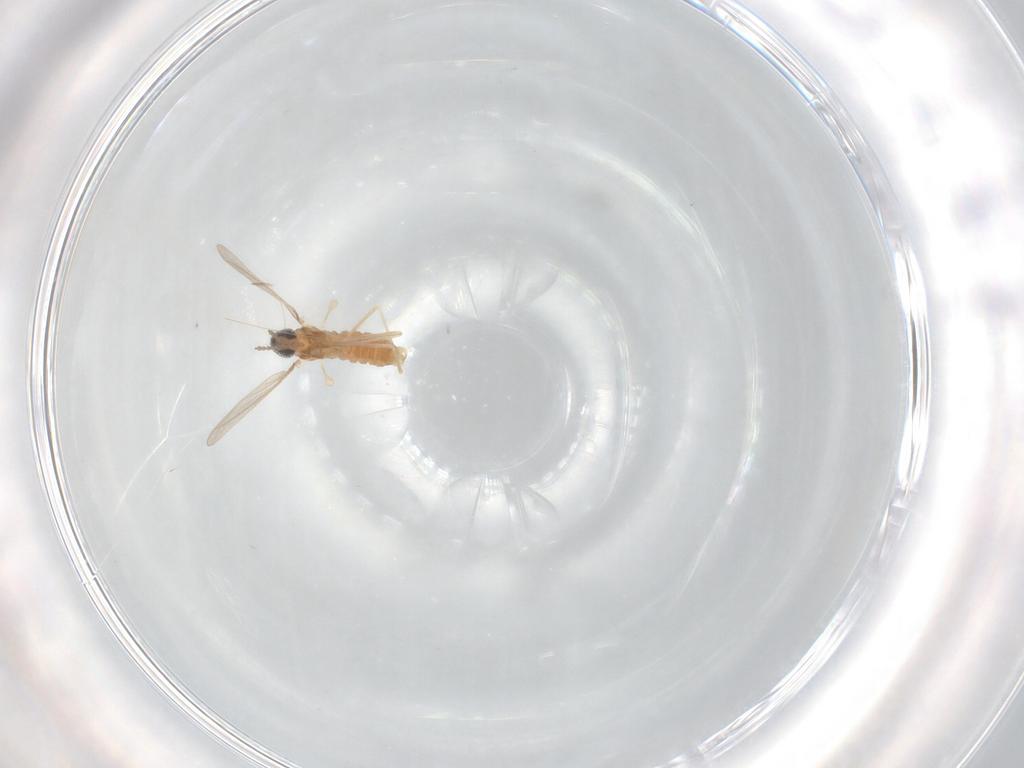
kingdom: Animalia
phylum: Arthropoda
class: Insecta
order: Diptera
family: Cecidomyiidae
